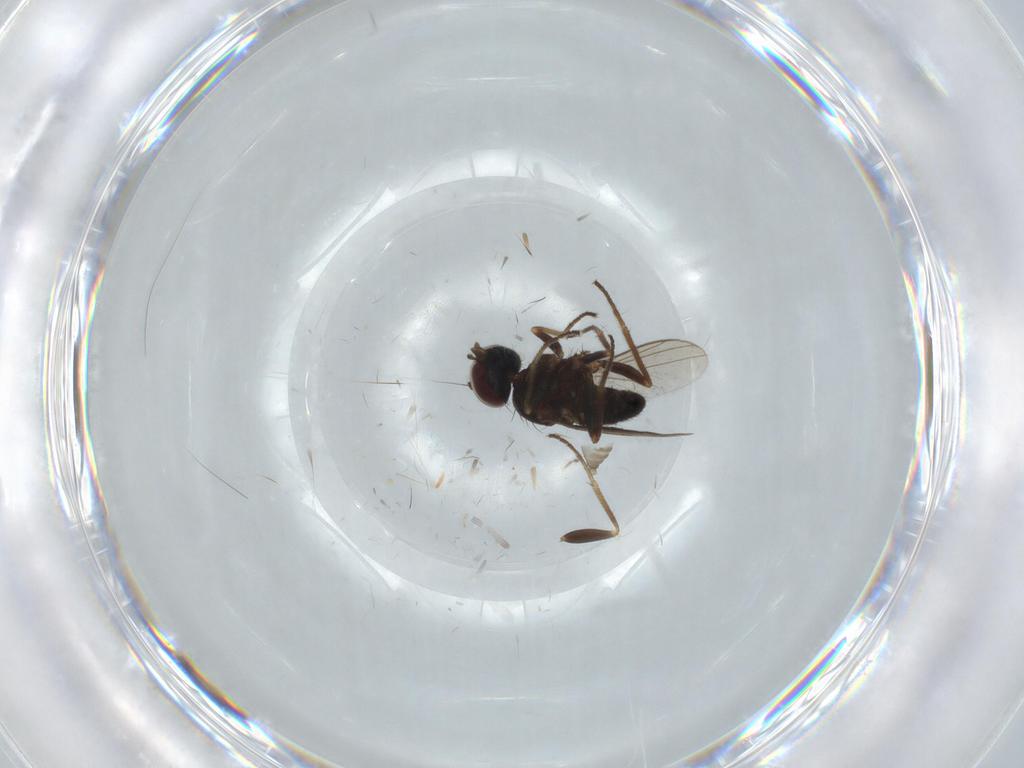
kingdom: Animalia
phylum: Arthropoda
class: Insecta
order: Diptera
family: Dolichopodidae
